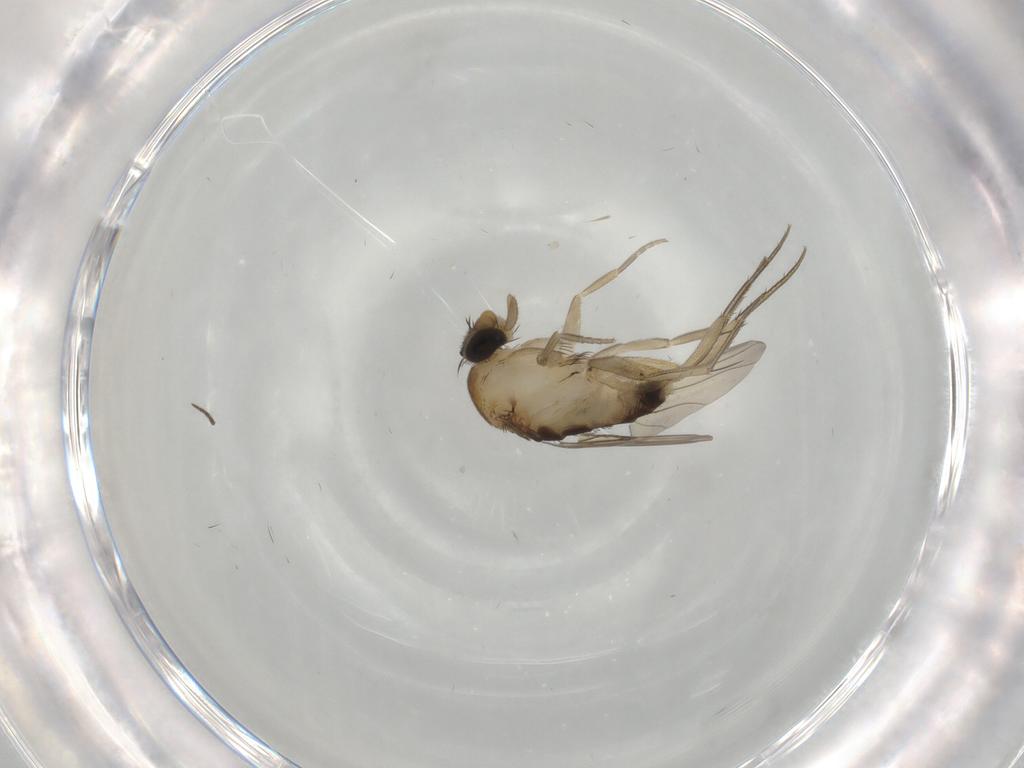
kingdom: Animalia
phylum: Arthropoda
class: Insecta
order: Diptera
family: Phoridae
